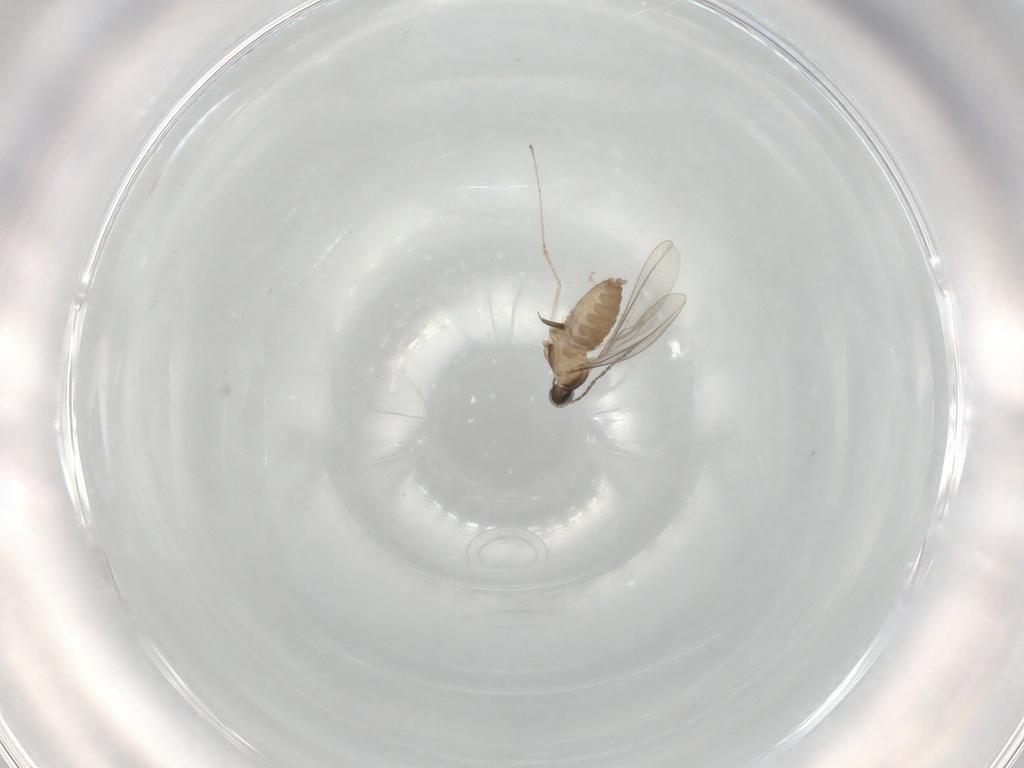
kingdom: Animalia
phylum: Arthropoda
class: Insecta
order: Diptera
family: Cecidomyiidae
